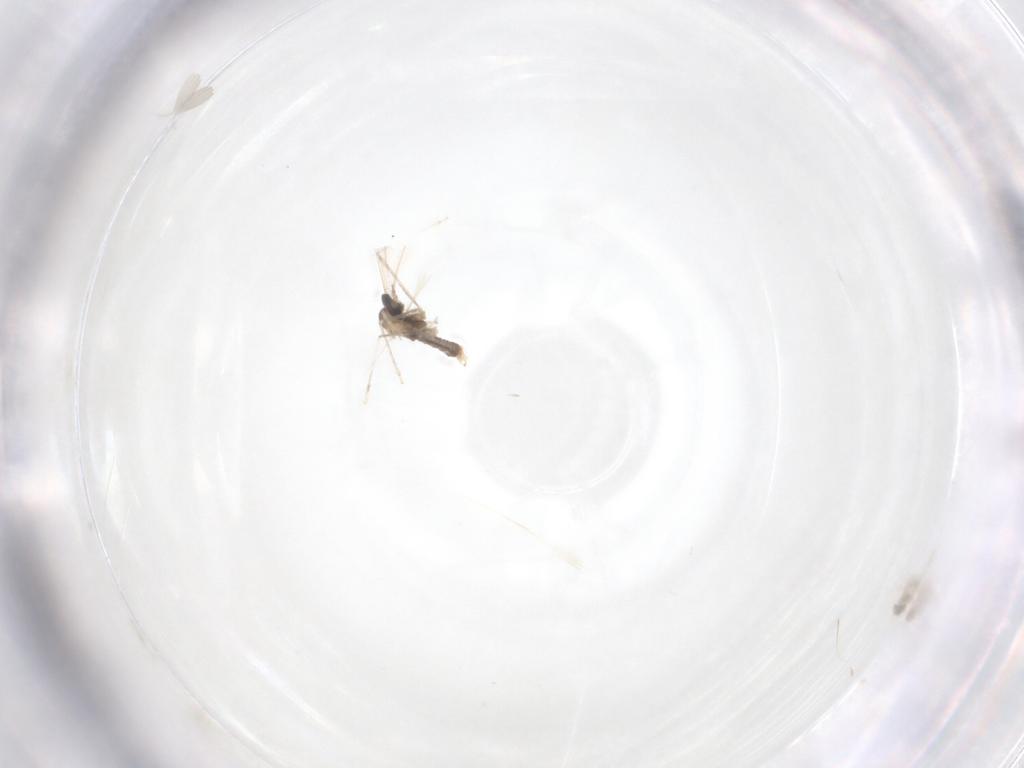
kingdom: Animalia
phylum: Arthropoda
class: Insecta
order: Diptera
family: Chironomidae
